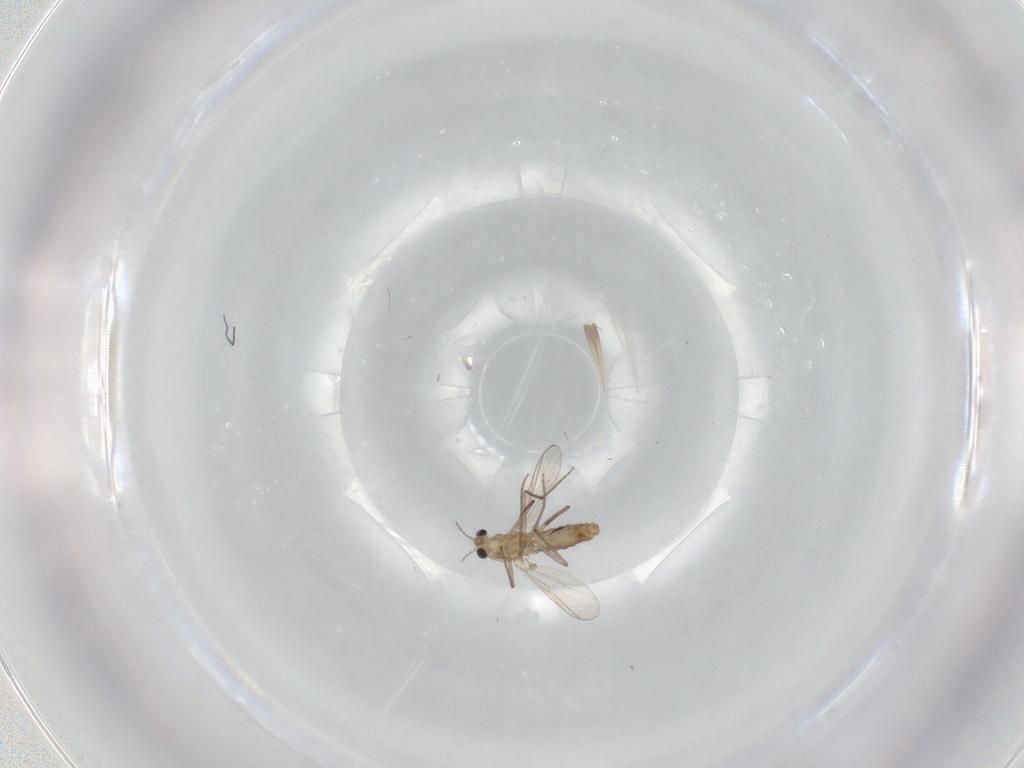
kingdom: Animalia
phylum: Arthropoda
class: Insecta
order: Diptera
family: Chironomidae
